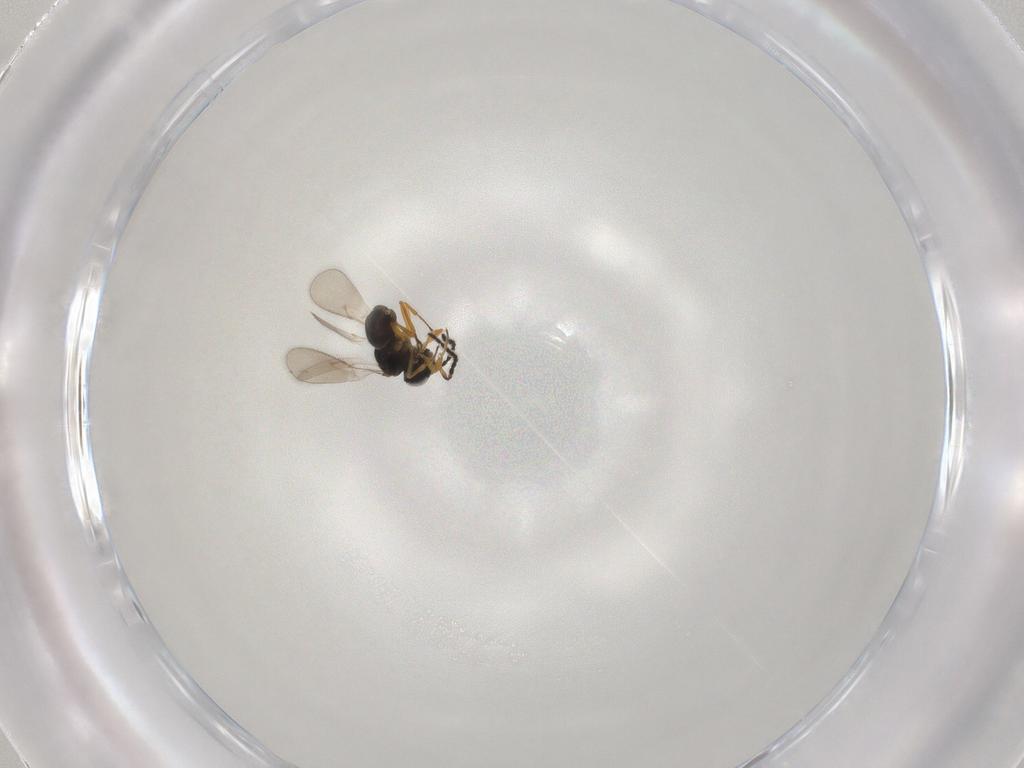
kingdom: Animalia
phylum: Arthropoda
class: Insecta
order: Hymenoptera
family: Scelionidae
